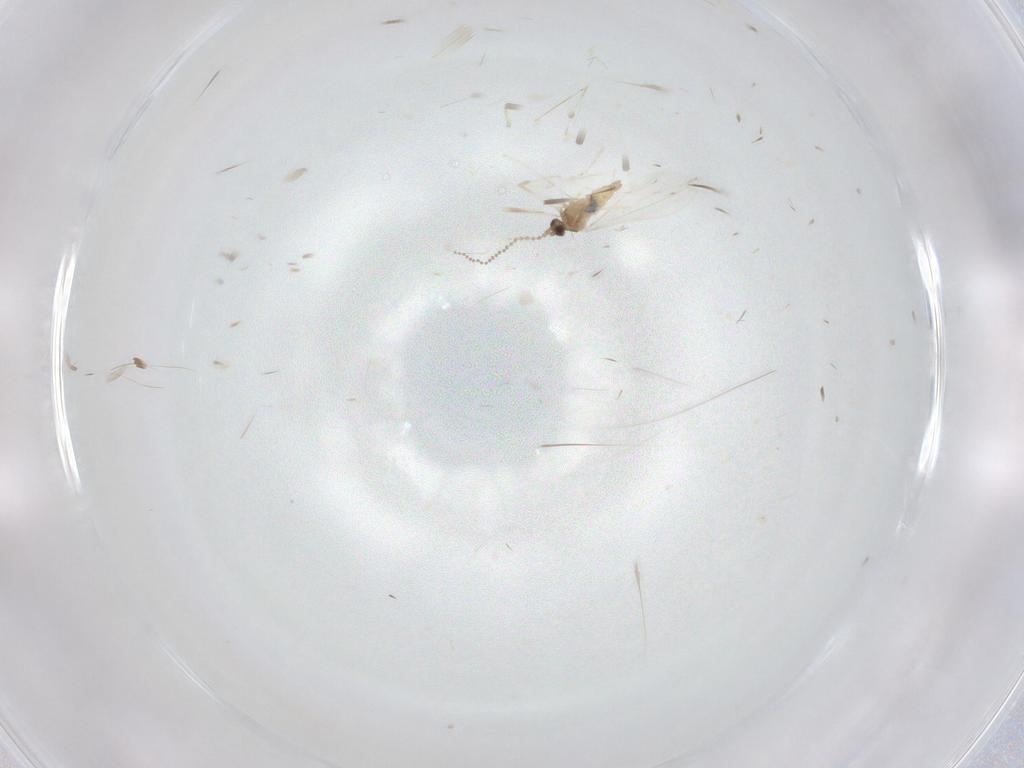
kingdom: Animalia
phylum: Arthropoda
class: Insecta
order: Diptera
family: Cecidomyiidae
